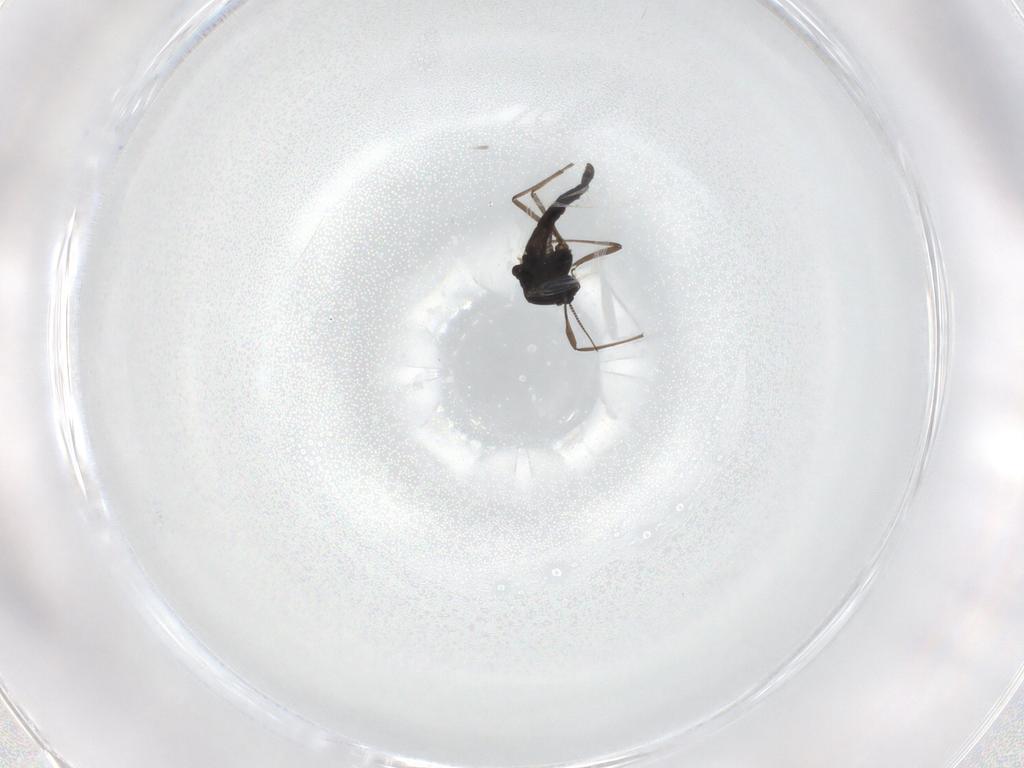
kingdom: Animalia
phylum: Arthropoda
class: Insecta
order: Diptera
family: Chironomidae
